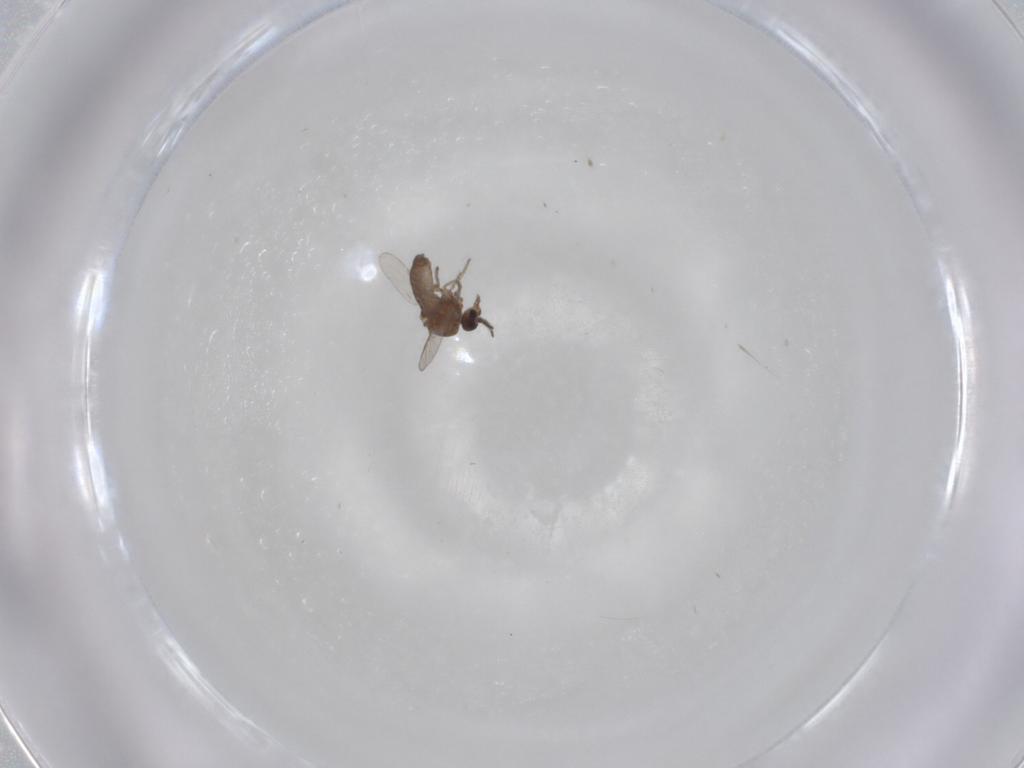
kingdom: Animalia
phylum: Arthropoda
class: Insecta
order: Diptera
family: Ceratopogonidae
